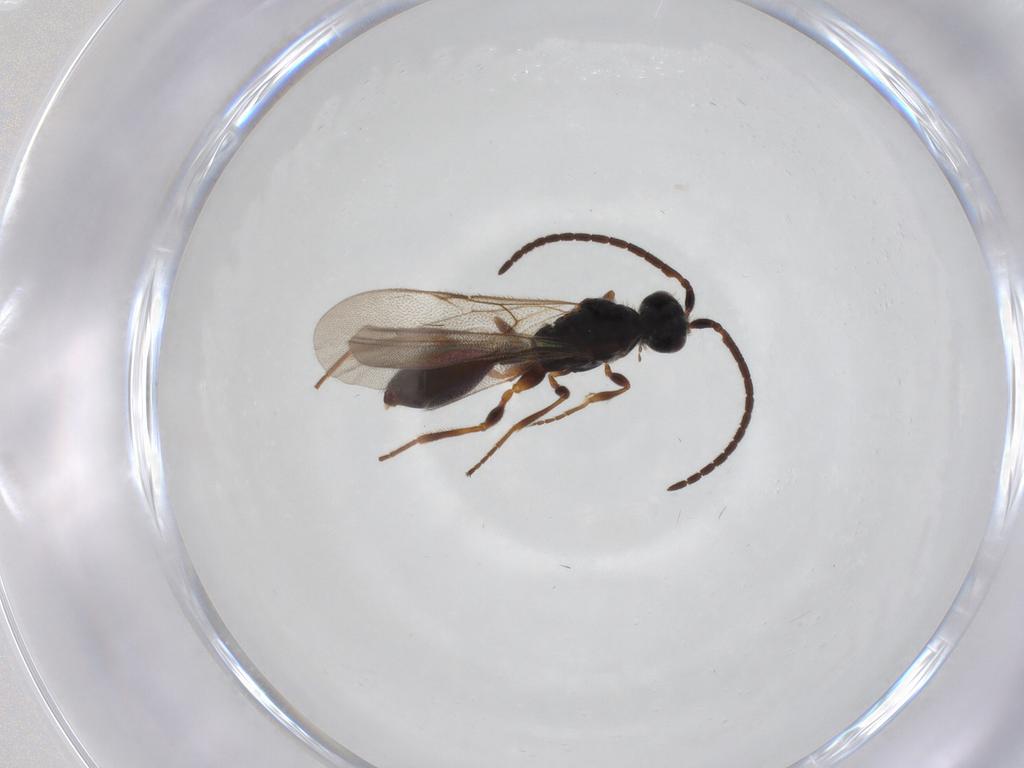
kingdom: Animalia
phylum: Arthropoda
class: Insecta
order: Hymenoptera
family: Braconidae
